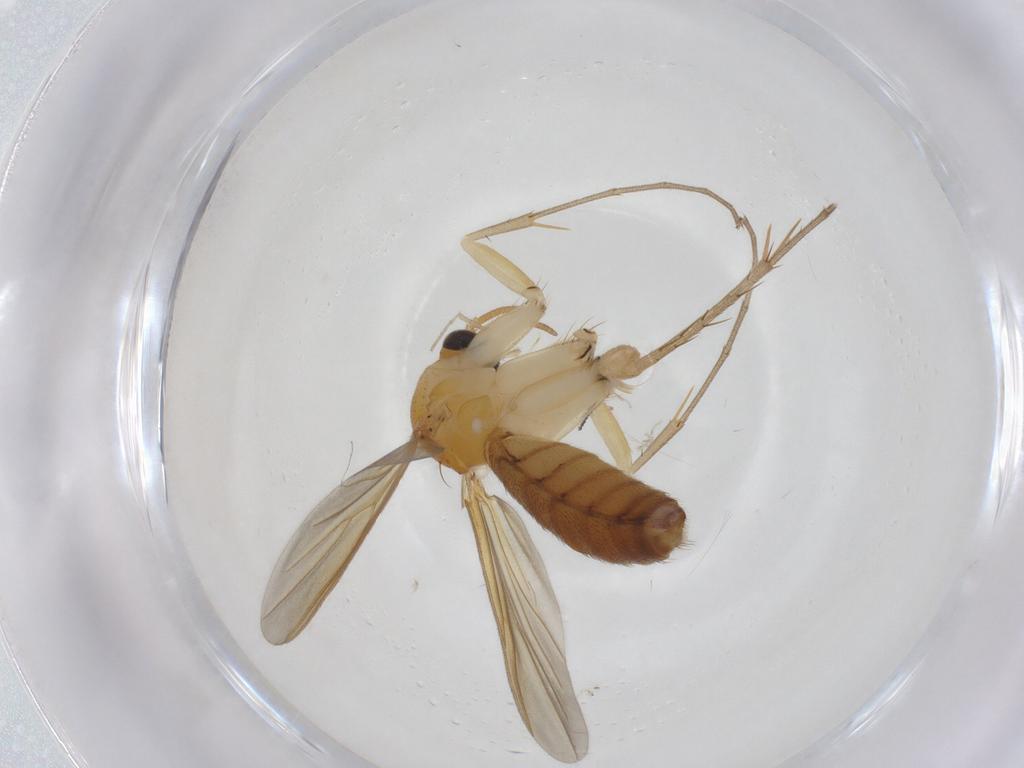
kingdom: Animalia
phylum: Arthropoda
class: Insecta
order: Diptera
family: Mycetophilidae
